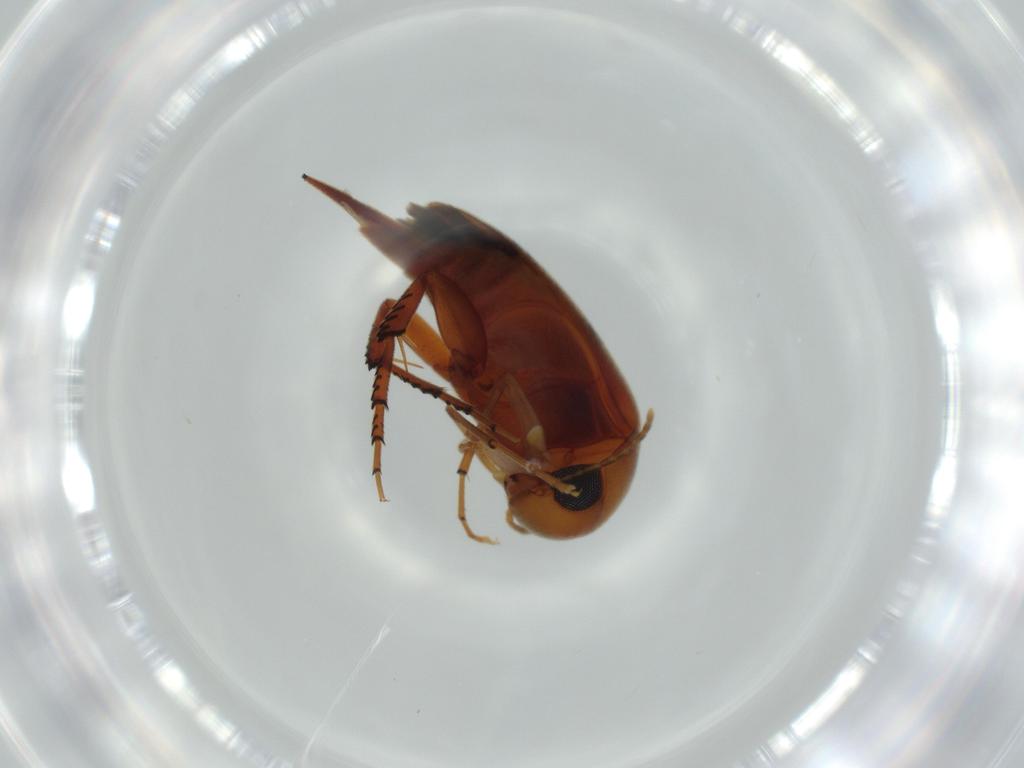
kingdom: Animalia
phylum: Arthropoda
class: Insecta
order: Coleoptera
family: Coccinellidae
